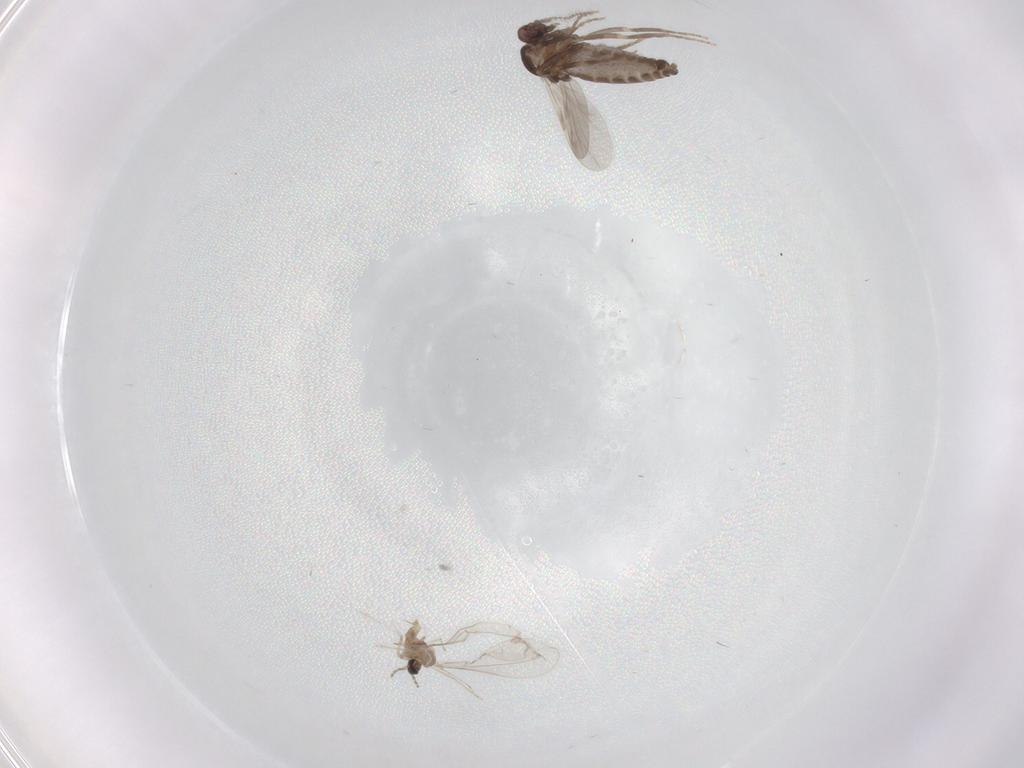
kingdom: Animalia
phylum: Arthropoda
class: Insecta
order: Diptera
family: Ceratopogonidae
